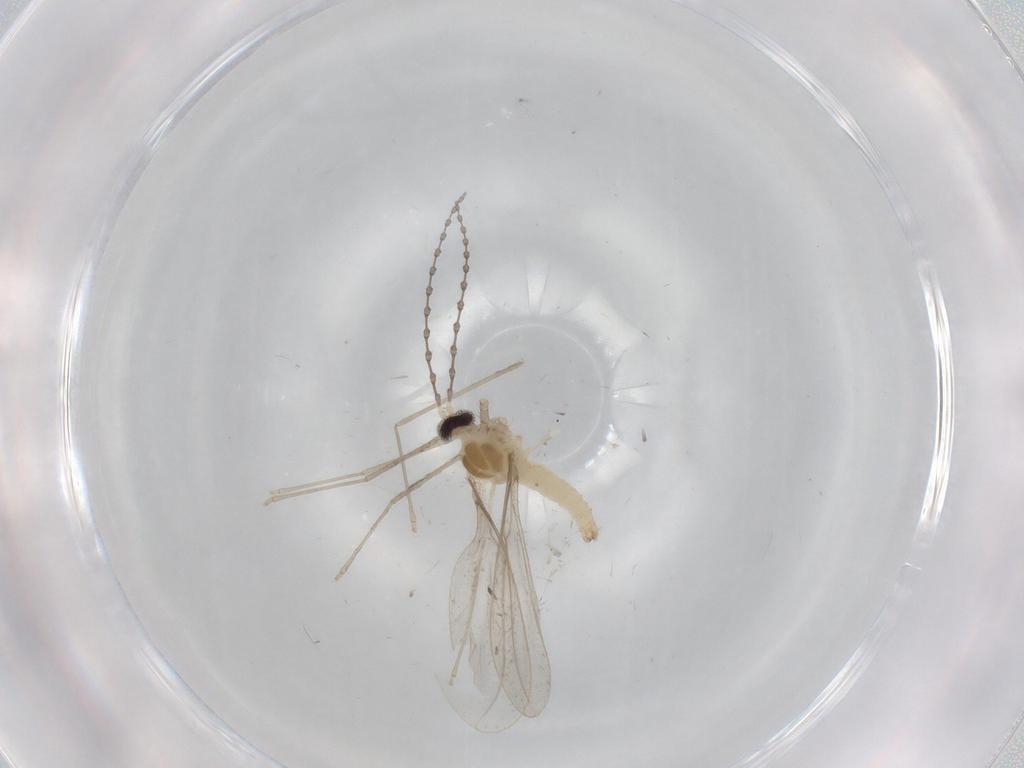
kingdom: Animalia
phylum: Arthropoda
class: Insecta
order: Diptera
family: Cecidomyiidae
